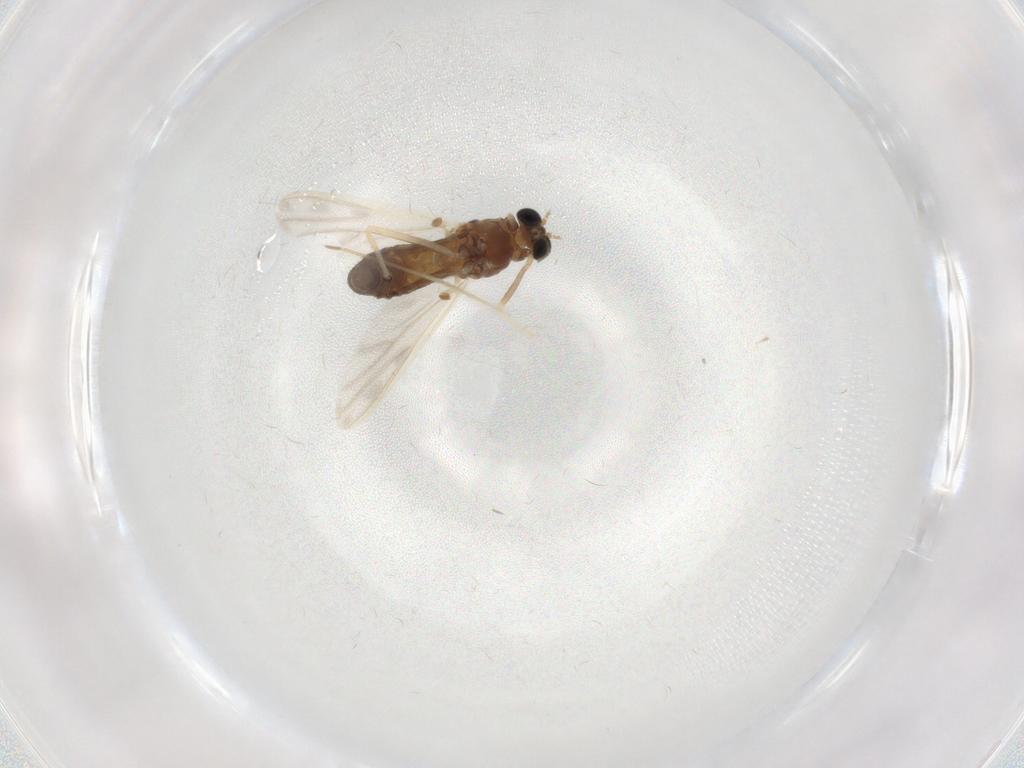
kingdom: Animalia
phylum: Arthropoda
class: Insecta
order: Diptera
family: Chironomidae
